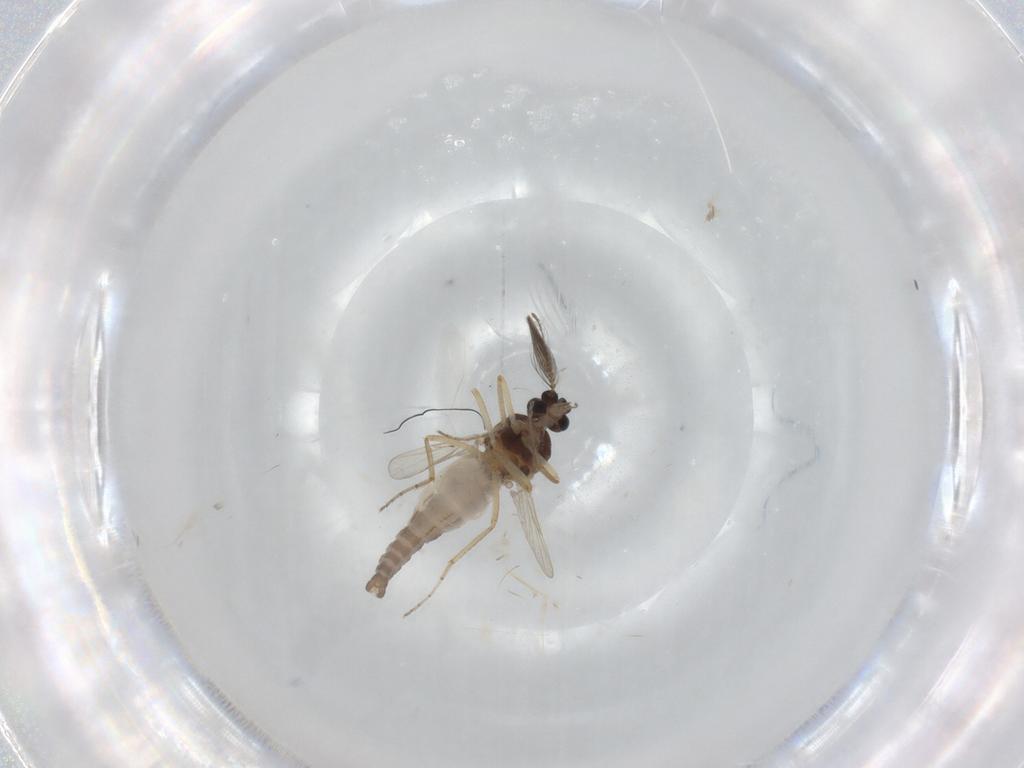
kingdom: Animalia
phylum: Arthropoda
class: Insecta
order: Diptera
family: Ceratopogonidae
